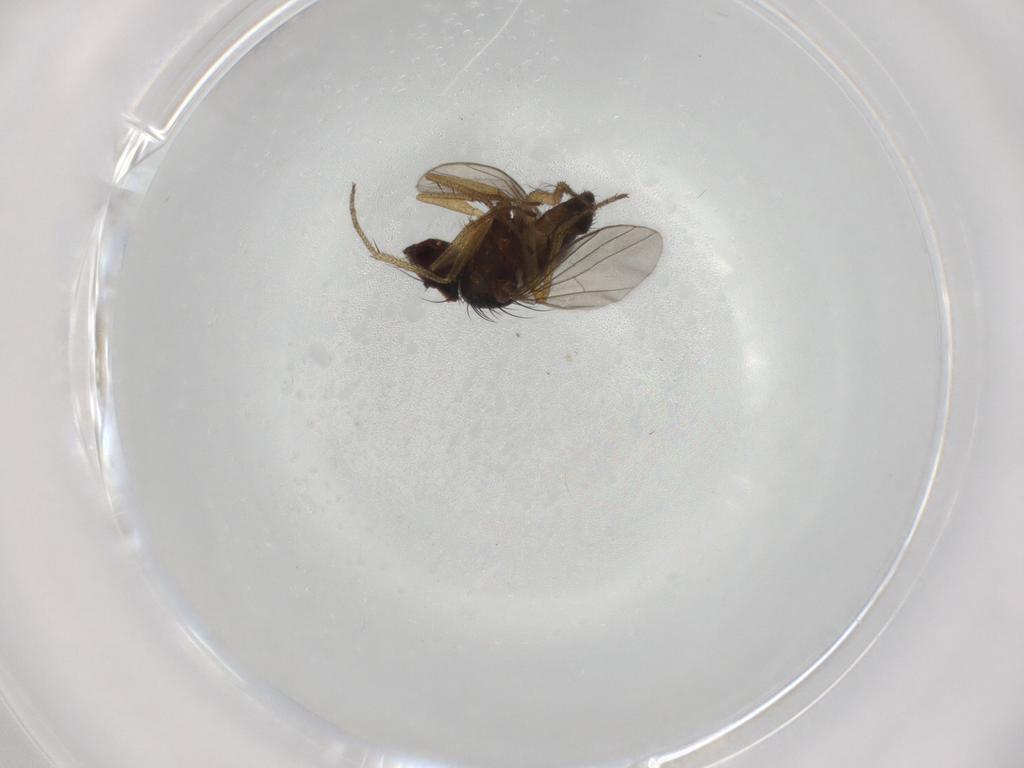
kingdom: Animalia
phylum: Arthropoda
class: Insecta
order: Diptera
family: Dolichopodidae
